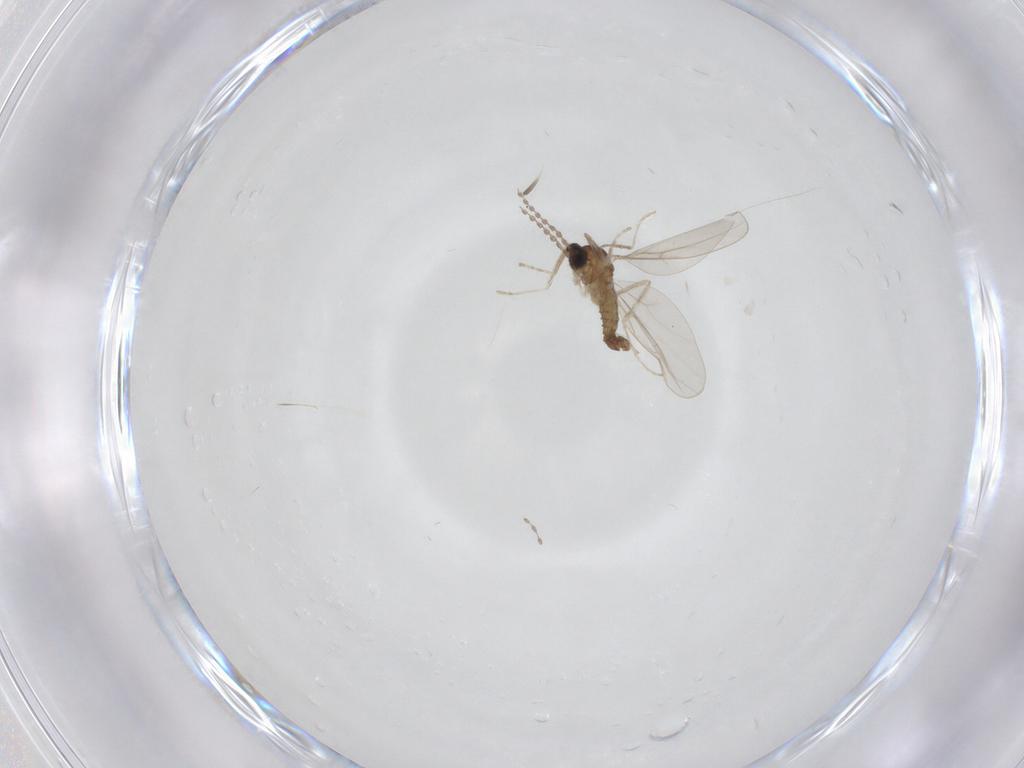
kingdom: Animalia
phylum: Arthropoda
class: Insecta
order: Diptera
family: Cecidomyiidae
